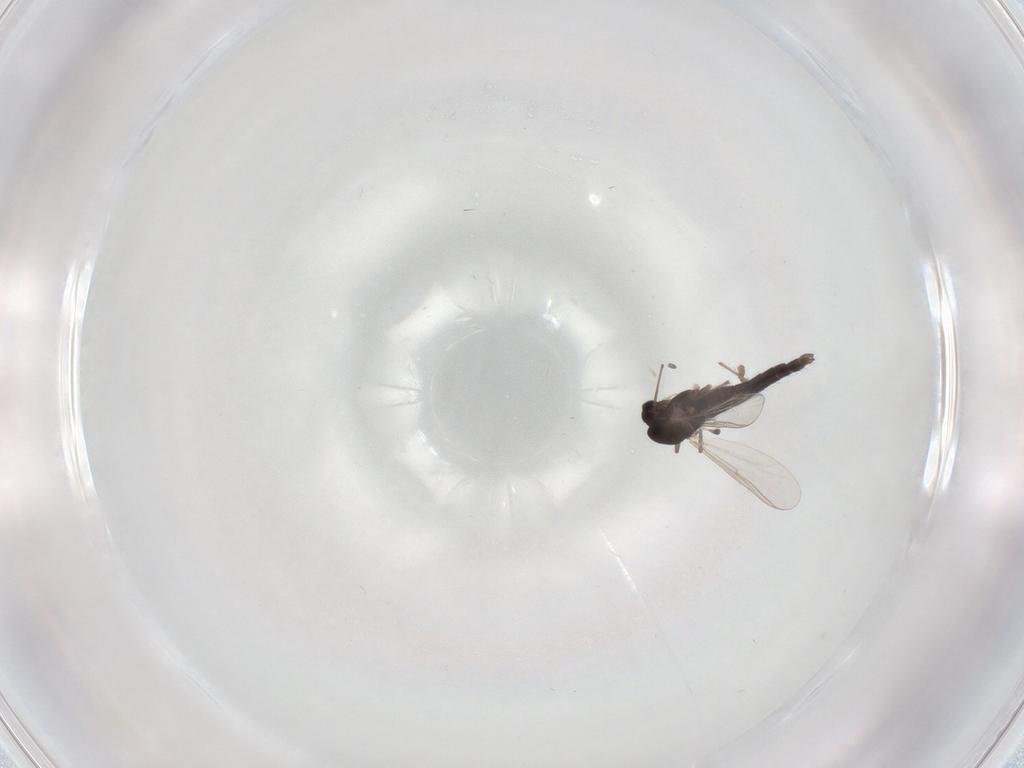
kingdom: Animalia
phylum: Arthropoda
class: Insecta
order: Diptera
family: Chironomidae
